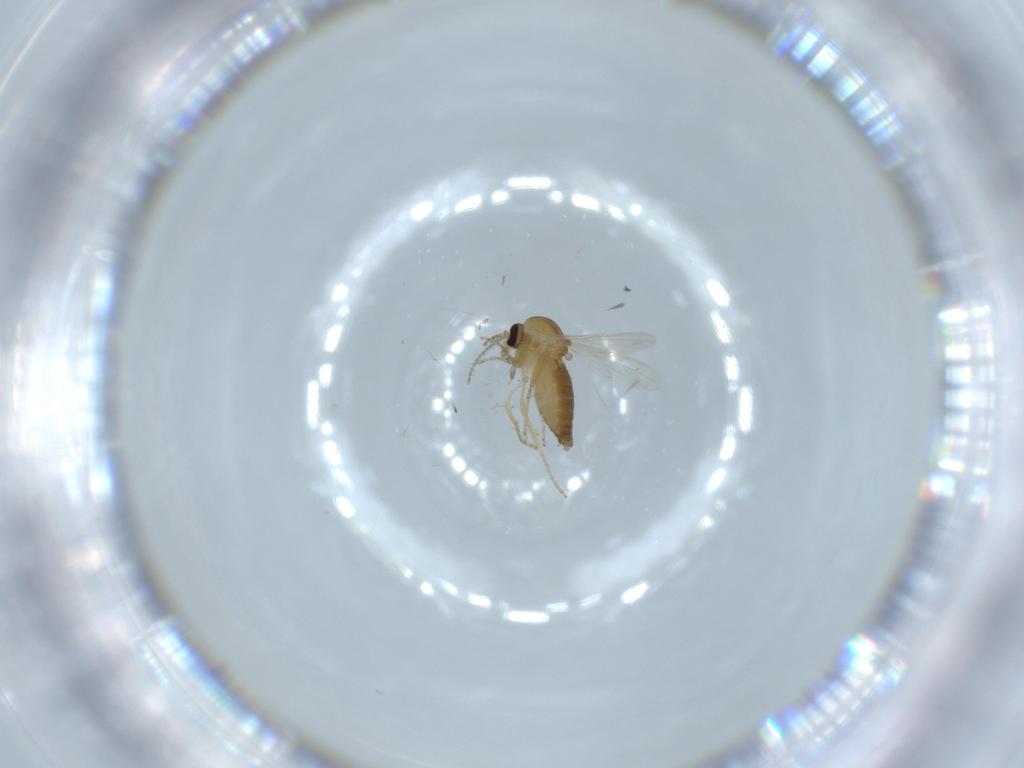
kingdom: Animalia
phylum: Arthropoda
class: Insecta
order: Diptera
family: Ceratopogonidae
